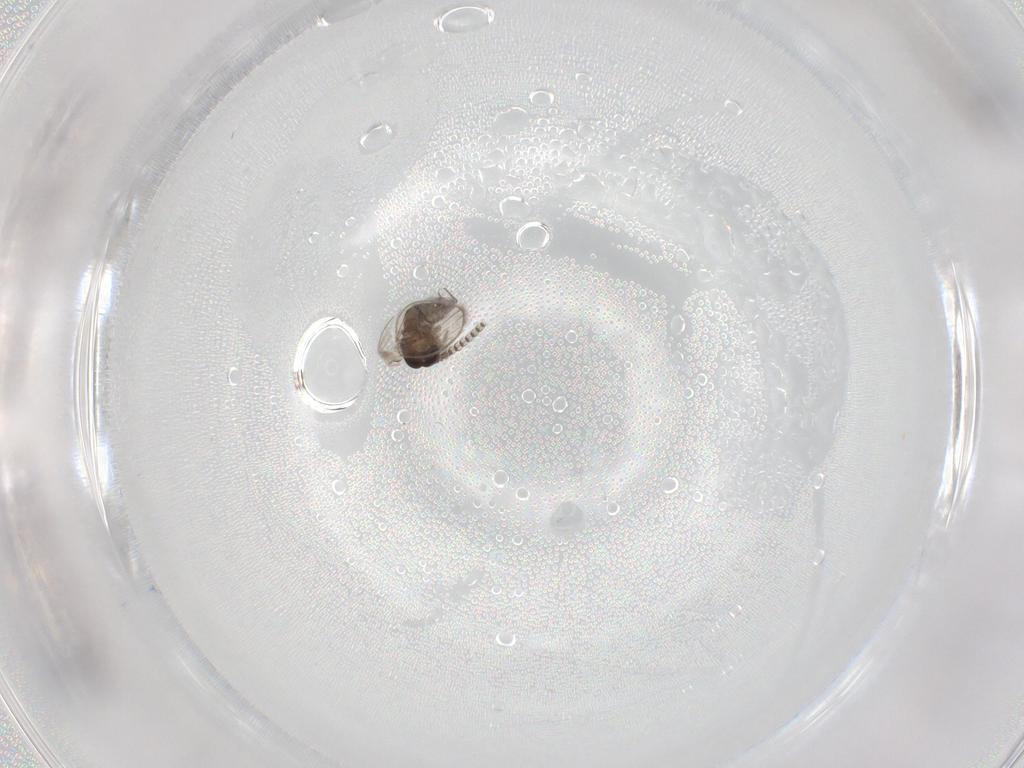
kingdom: Animalia
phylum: Arthropoda
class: Insecta
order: Diptera
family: Psychodidae
